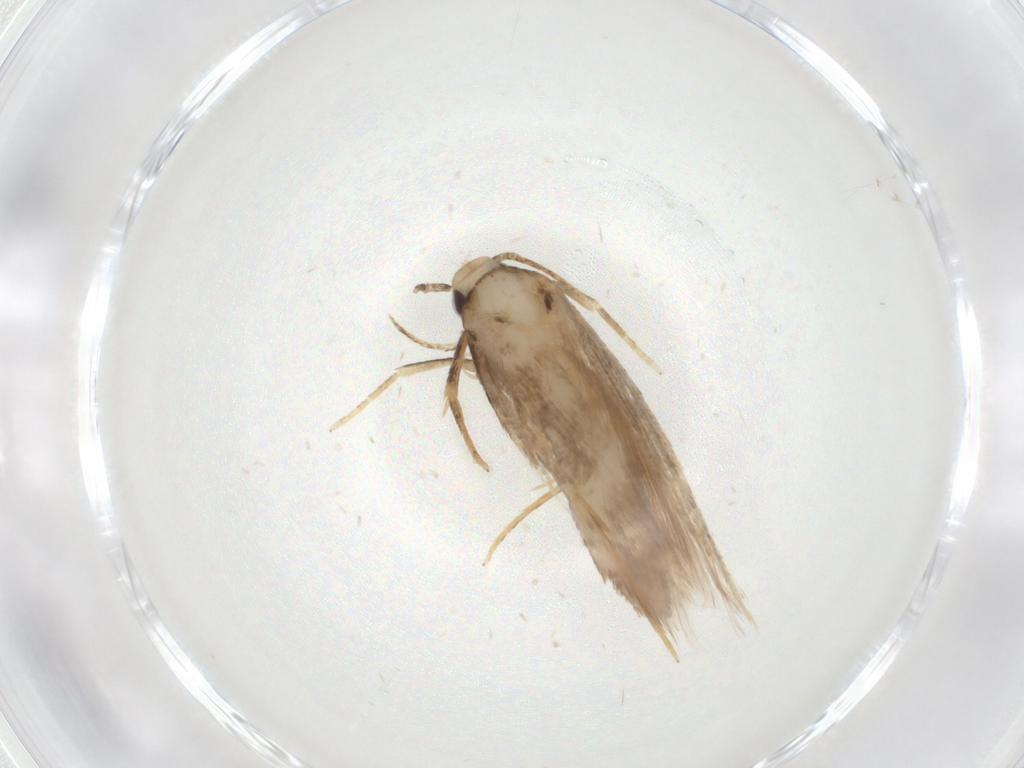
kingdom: Animalia
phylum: Arthropoda
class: Insecta
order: Lepidoptera
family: Coleophoridae
